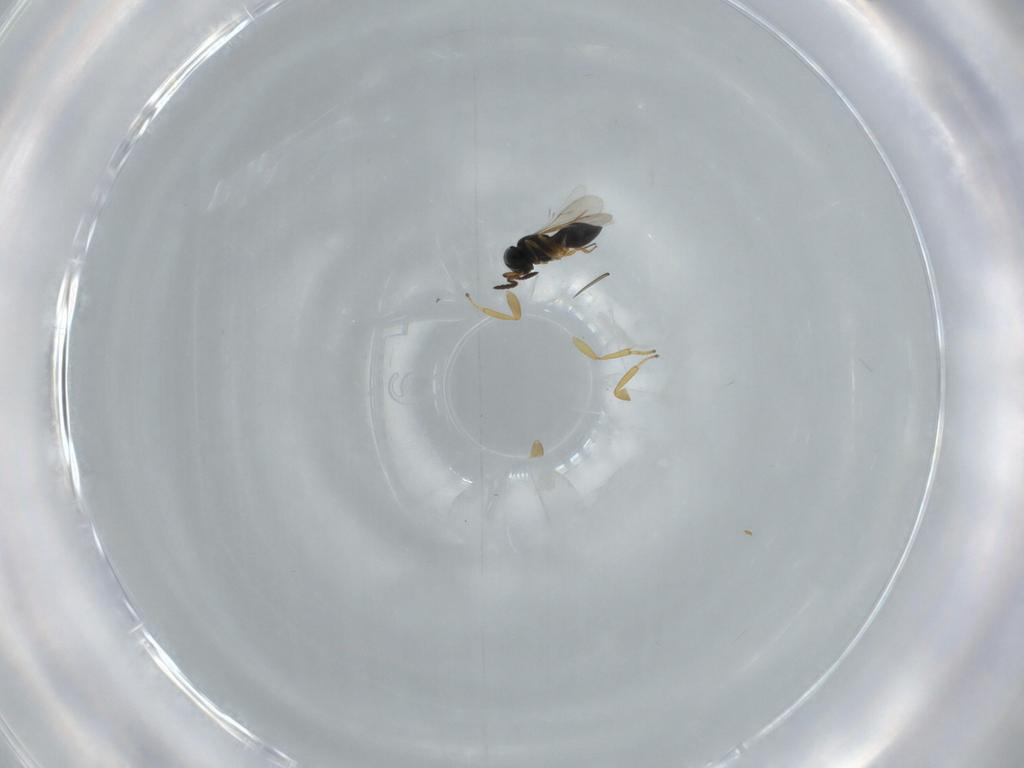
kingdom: Animalia
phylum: Arthropoda
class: Insecta
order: Hymenoptera
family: Scelionidae
